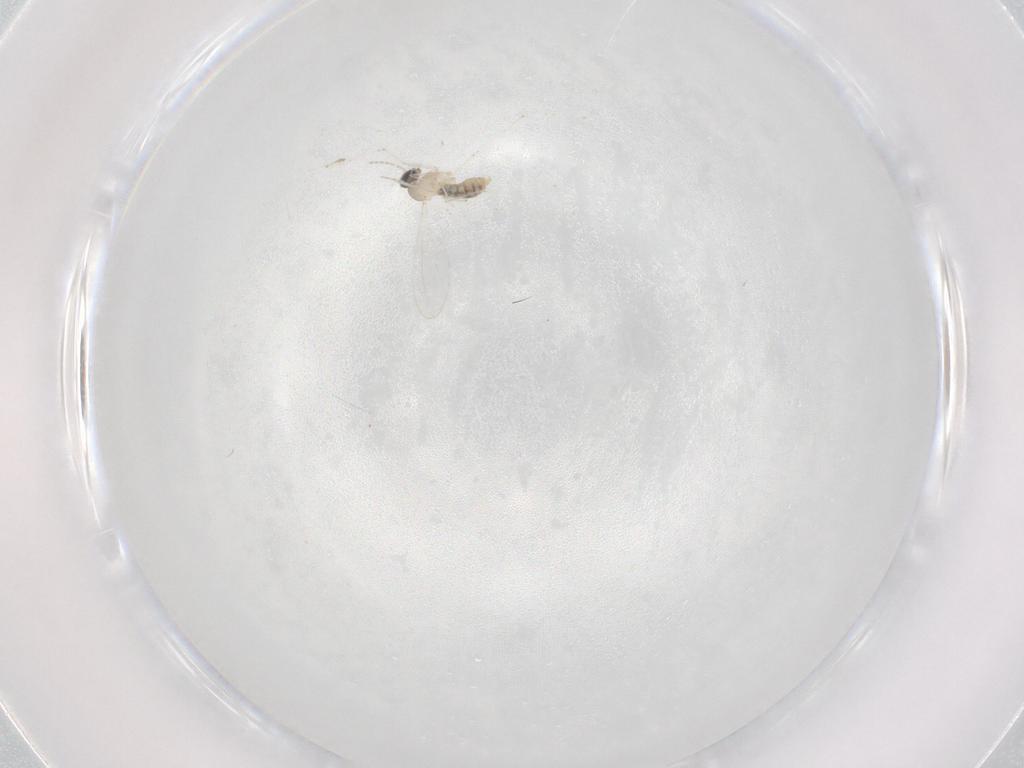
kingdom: Animalia
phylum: Arthropoda
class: Insecta
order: Diptera
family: Cecidomyiidae
